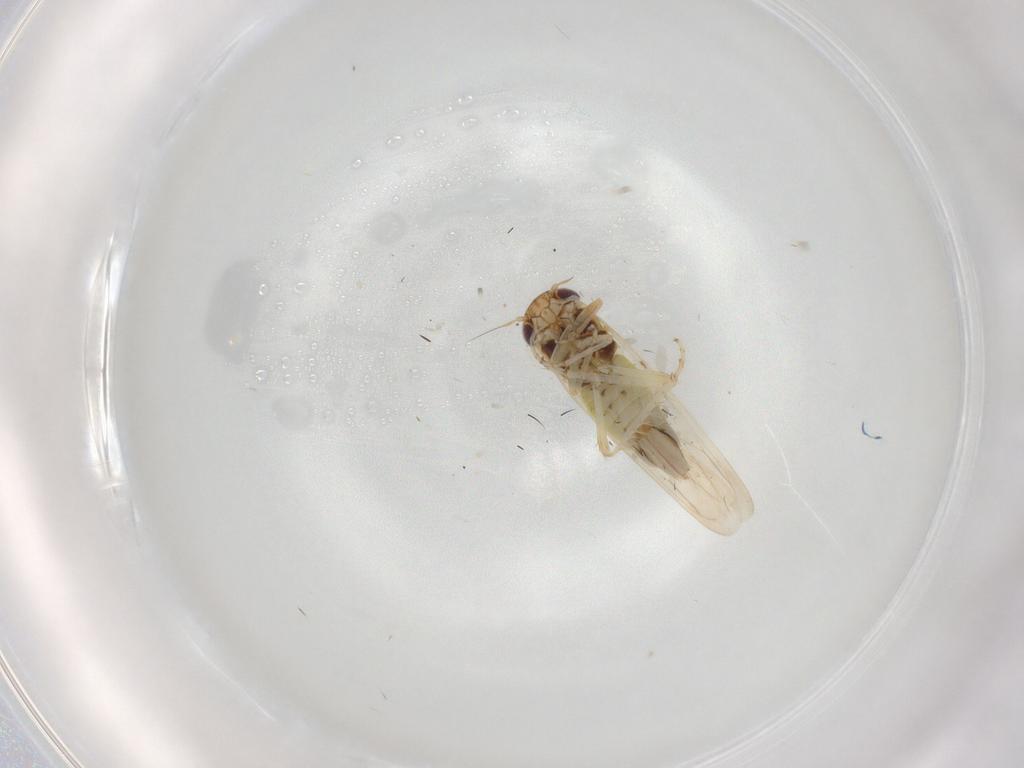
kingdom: Animalia
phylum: Arthropoda
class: Insecta
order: Hemiptera
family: Cicadellidae
